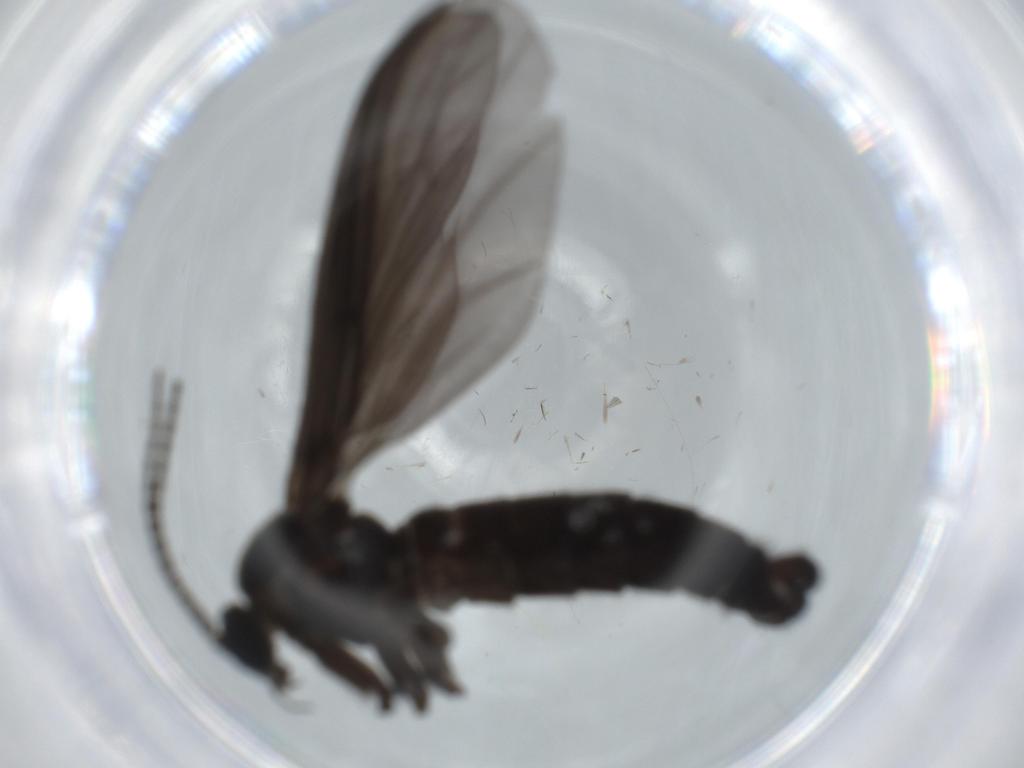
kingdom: Animalia
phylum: Arthropoda
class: Insecta
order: Diptera
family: Sciaridae
